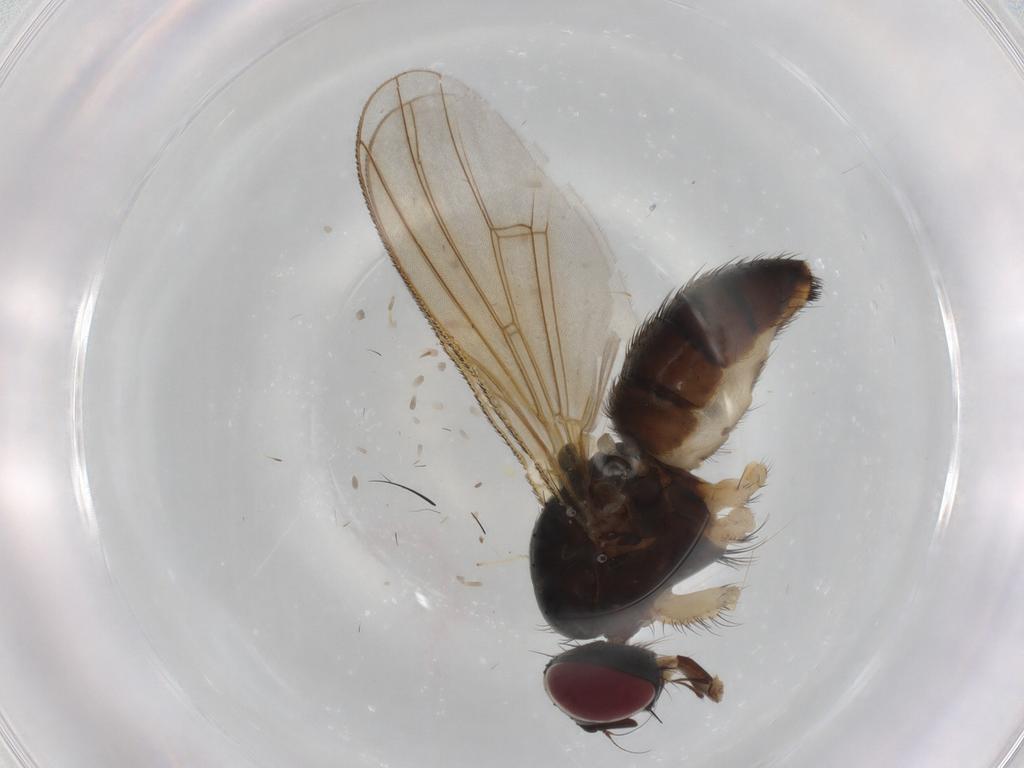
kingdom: Animalia
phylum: Arthropoda
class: Insecta
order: Diptera
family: Muscidae
